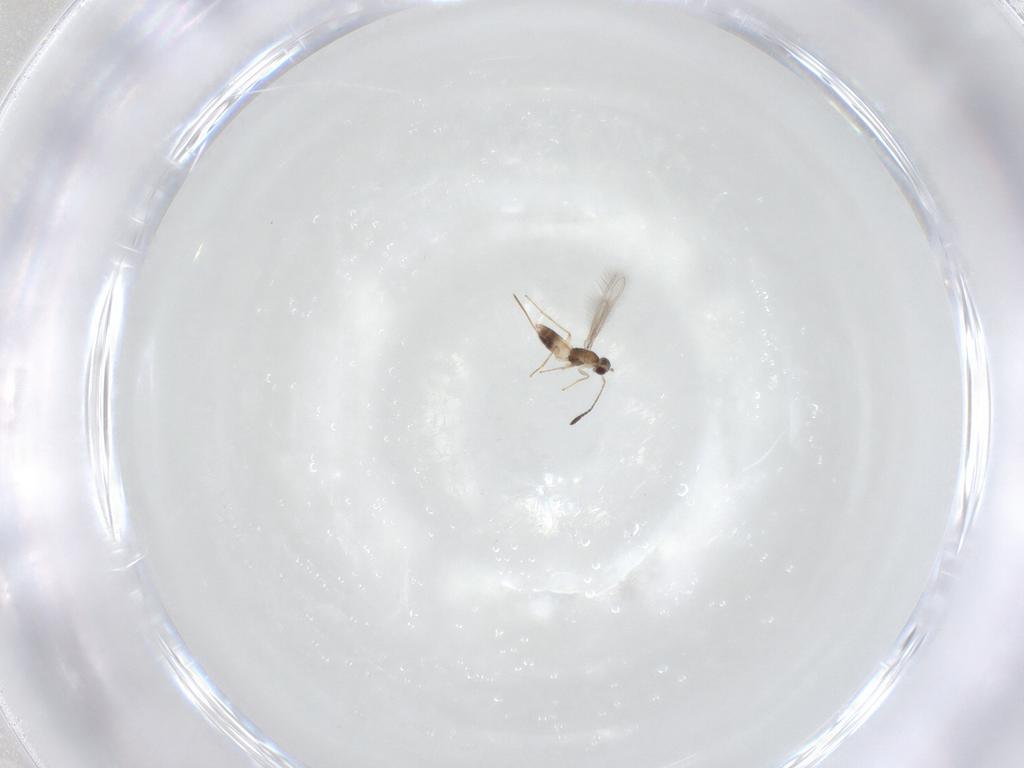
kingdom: Animalia
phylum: Arthropoda
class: Insecta
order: Hymenoptera
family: Mymaridae
